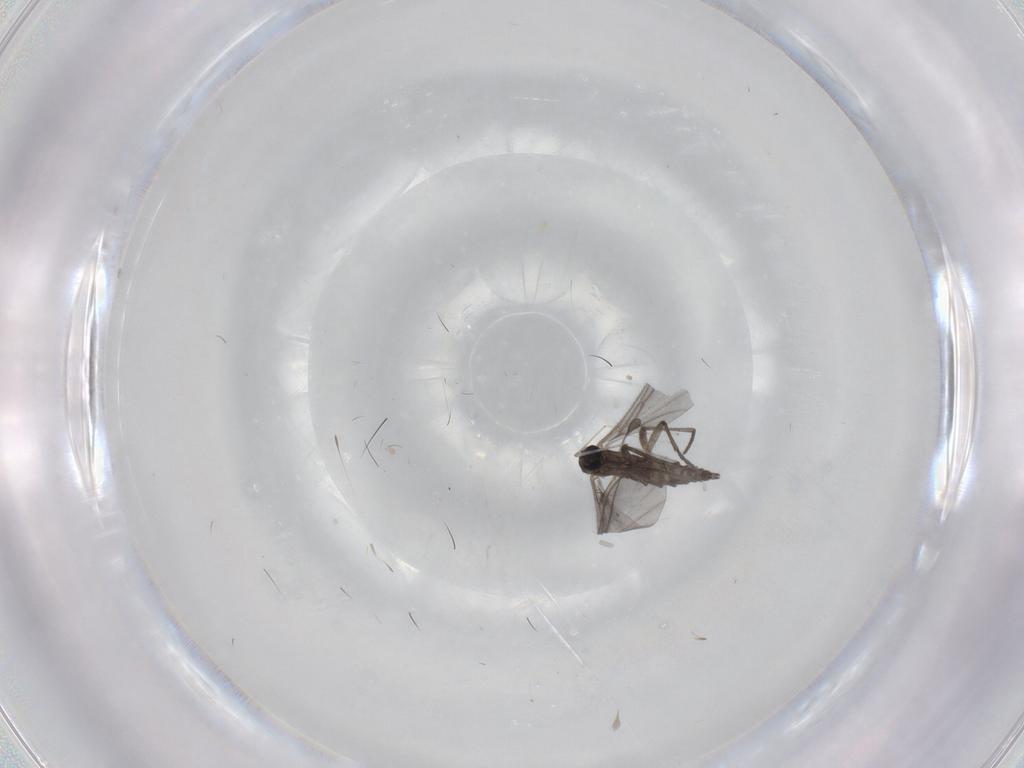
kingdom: Animalia
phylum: Arthropoda
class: Insecta
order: Diptera
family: Sciaridae
